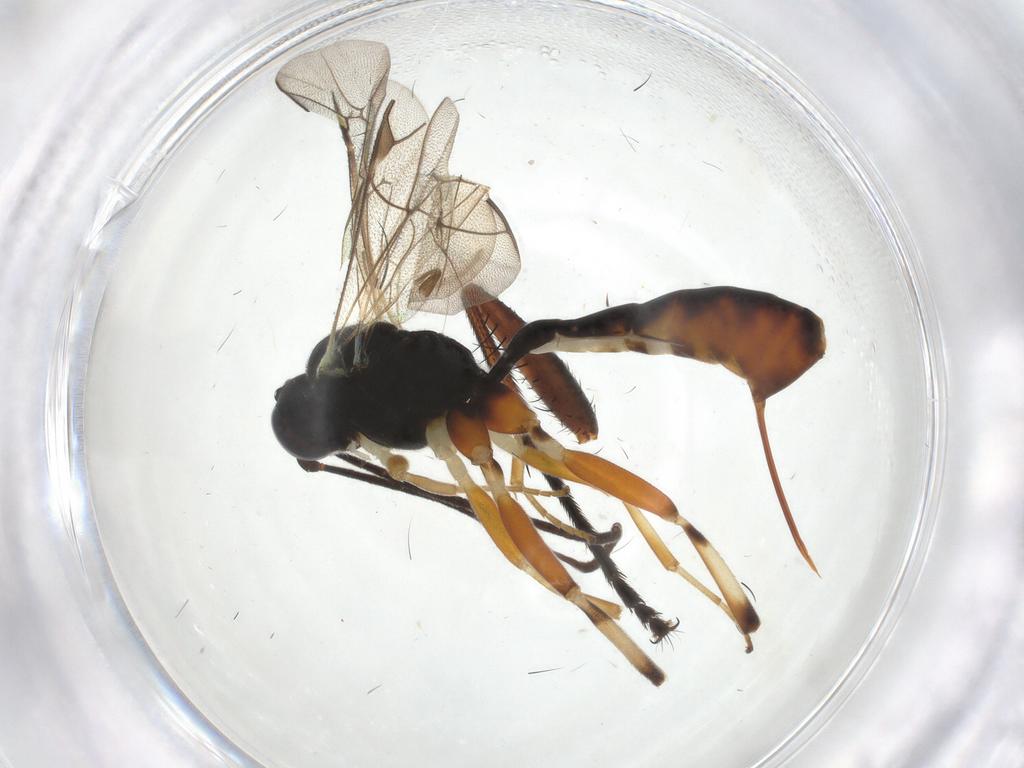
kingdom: Animalia
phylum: Arthropoda
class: Insecta
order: Hymenoptera
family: Ichneumonidae
